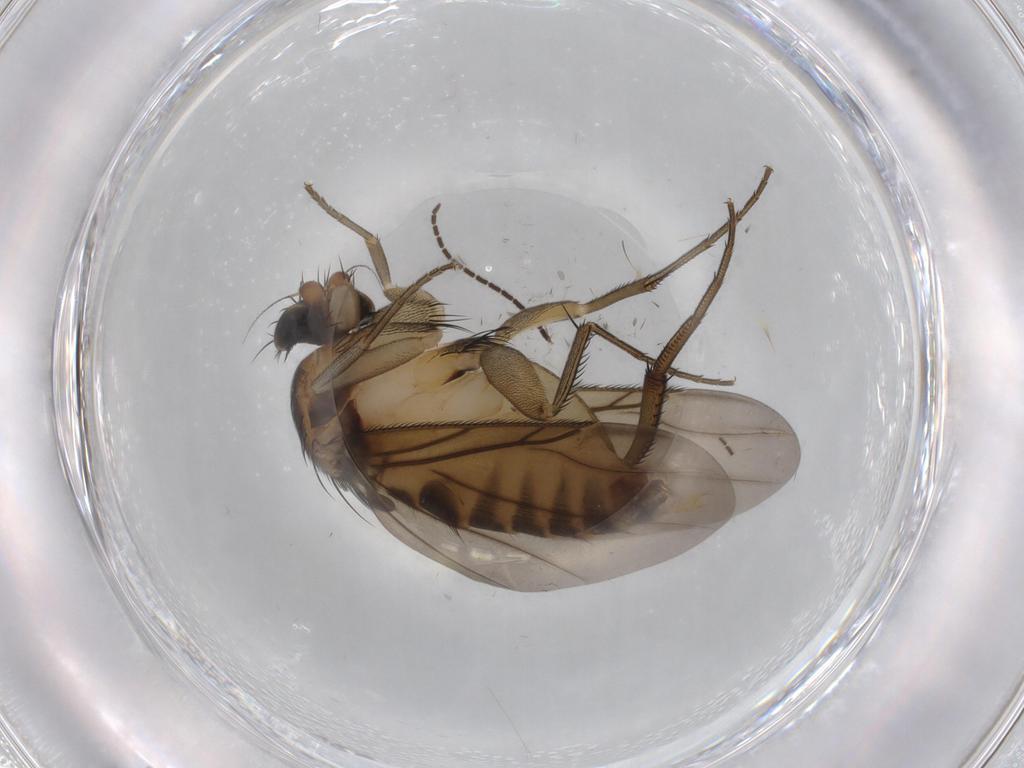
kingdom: Animalia
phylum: Arthropoda
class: Insecta
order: Diptera
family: Phoridae
